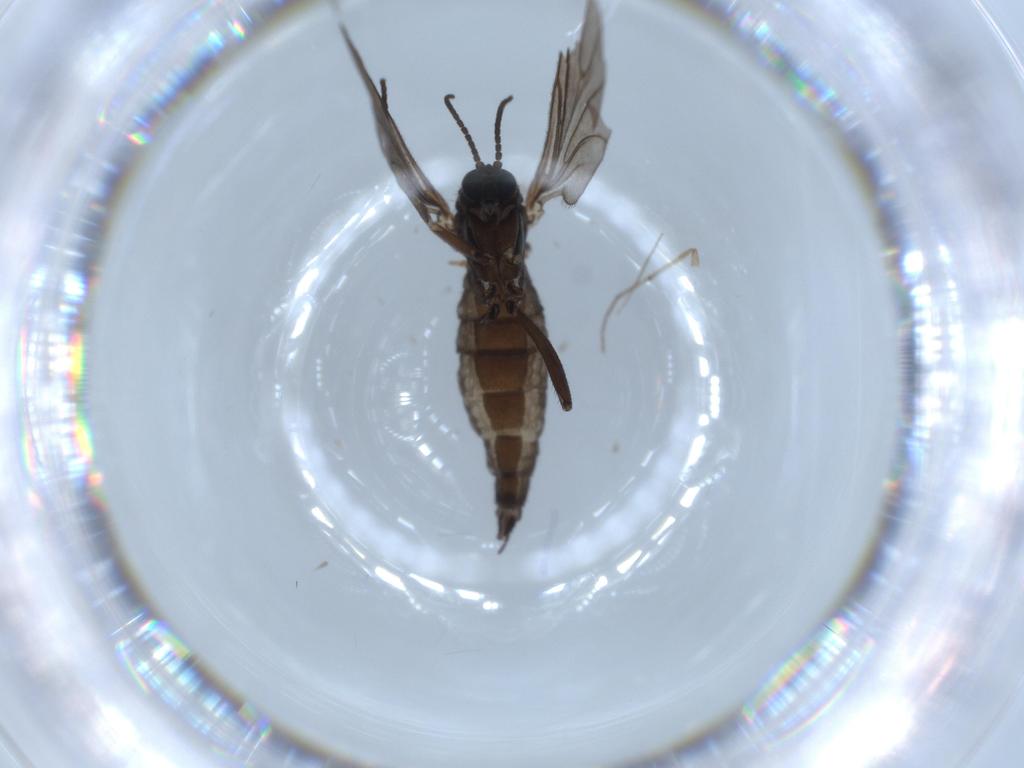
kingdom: Animalia
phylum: Arthropoda
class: Insecta
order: Diptera
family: Sciaridae
